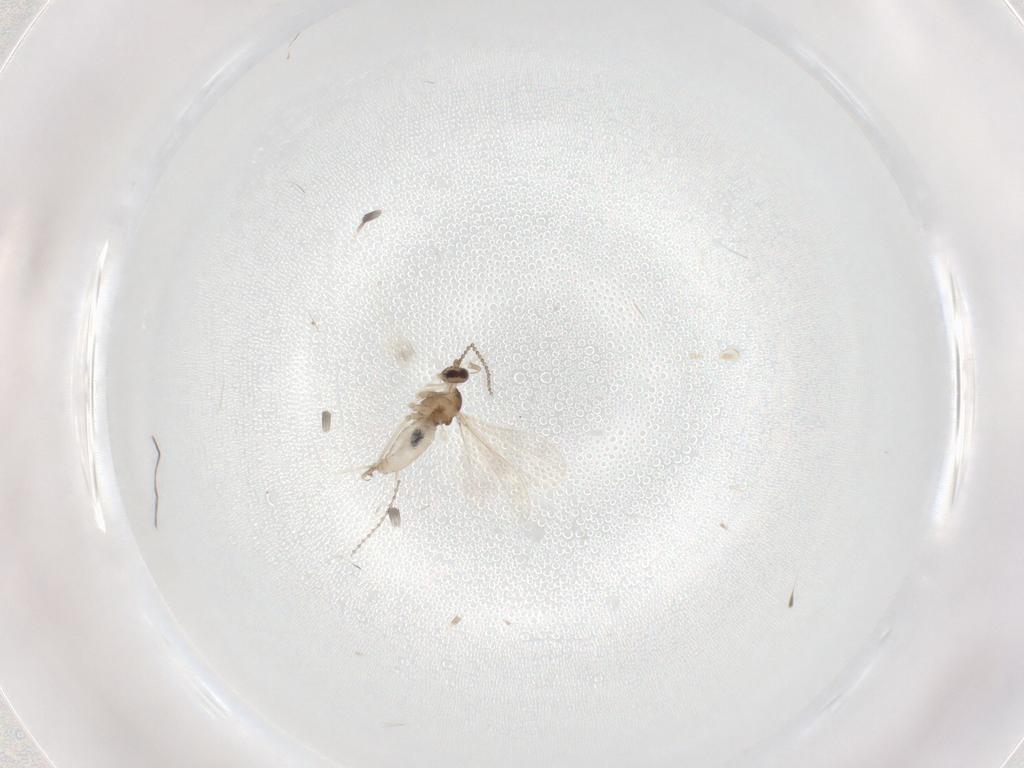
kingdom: Animalia
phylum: Arthropoda
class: Insecta
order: Diptera
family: Cecidomyiidae
